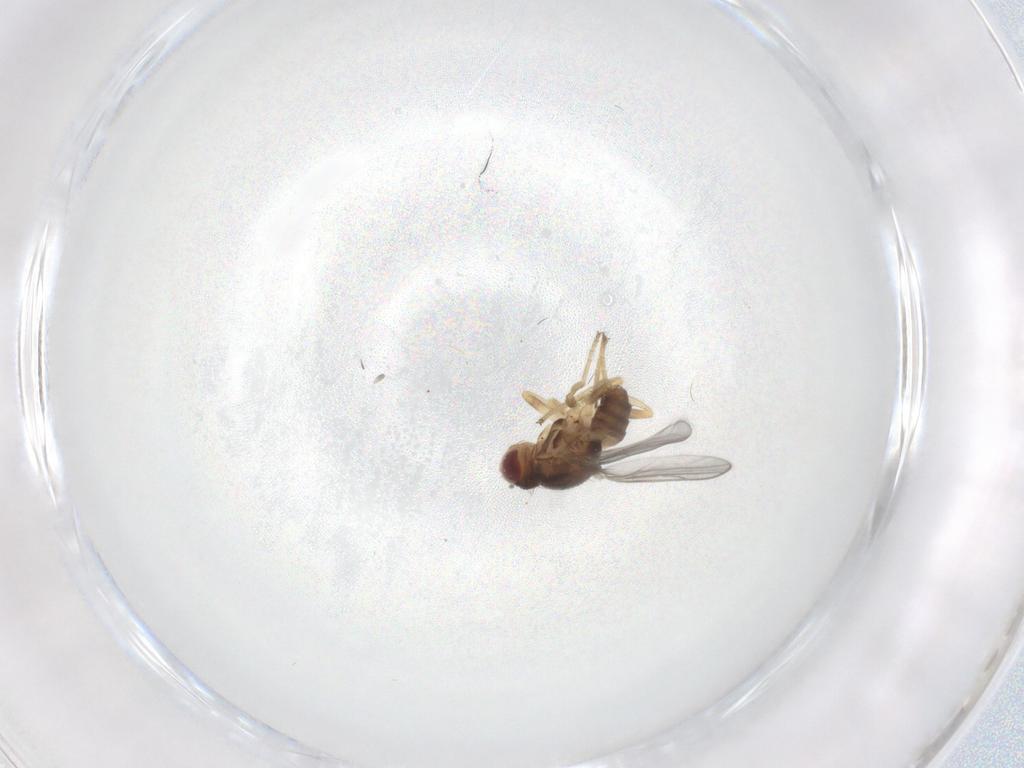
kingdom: Animalia
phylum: Arthropoda
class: Insecta
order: Diptera
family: Chloropidae
